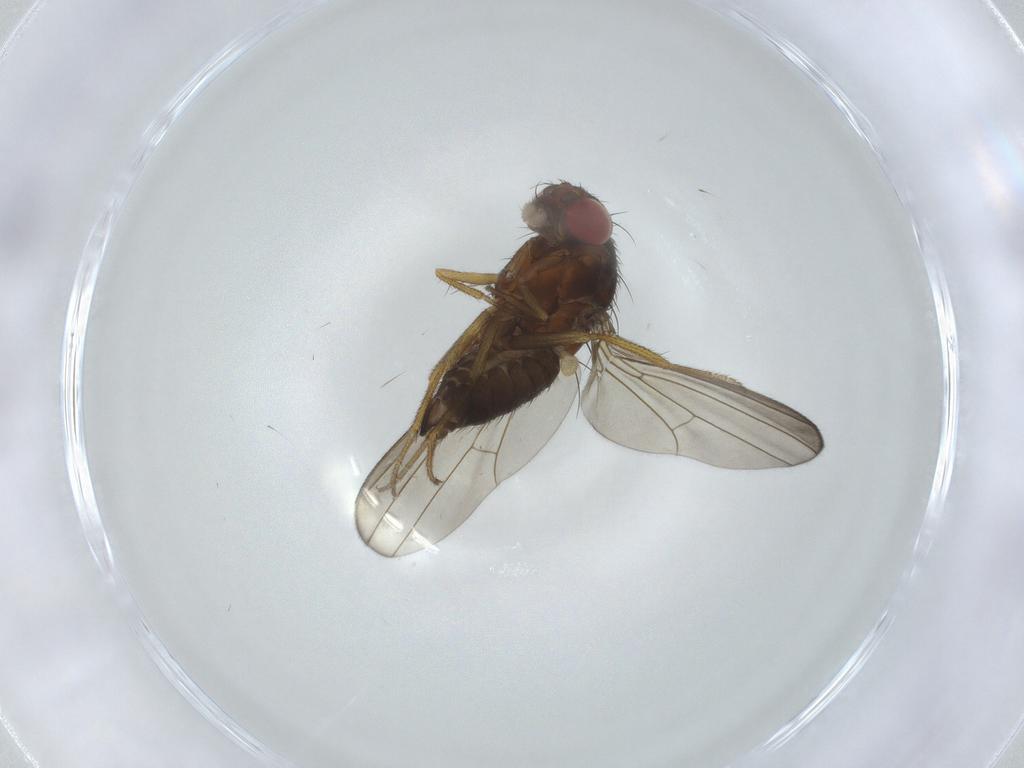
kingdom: Animalia
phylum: Arthropoda
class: Insecta
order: Diptera
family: Drosophilidae
